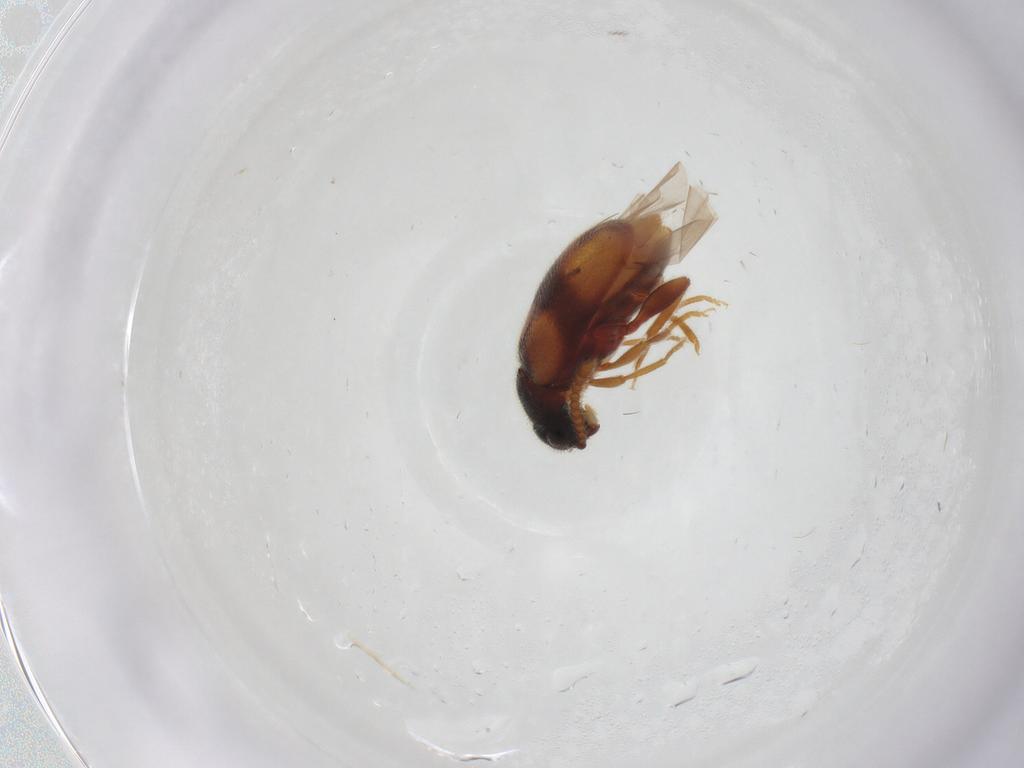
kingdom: Animalia
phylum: Arthropoda
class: Insecta
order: Coleoptera
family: Aderidae
